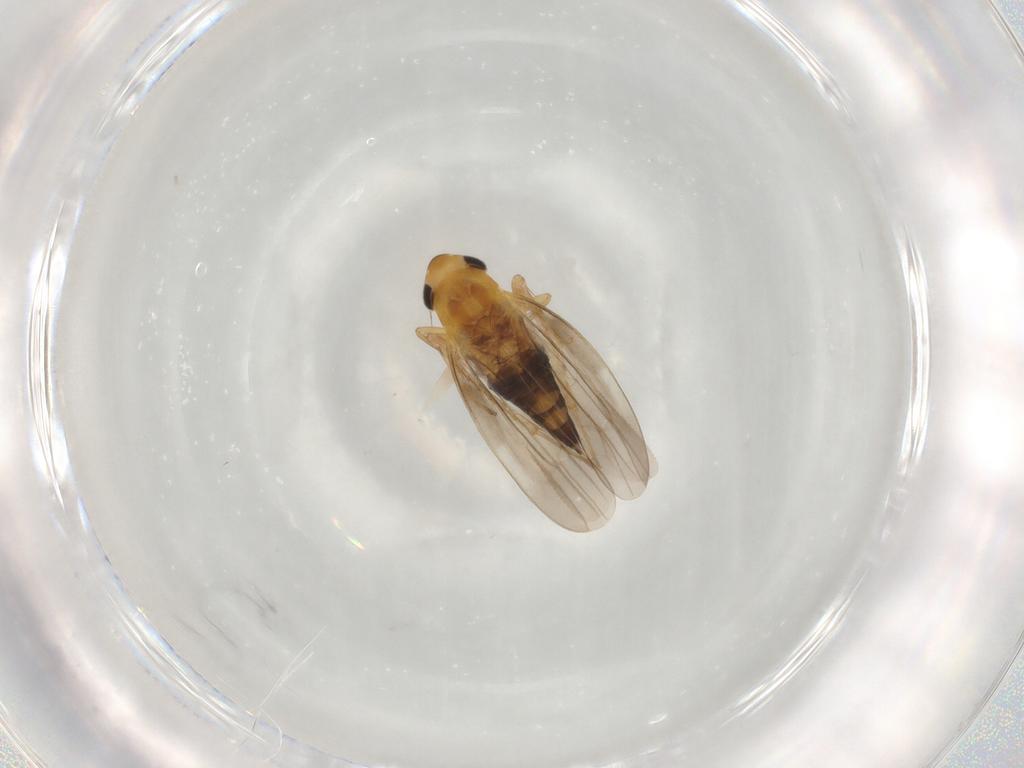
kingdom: Animalia
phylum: Arthropoda
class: Insecta
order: Hemiptera
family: Cicadellidae
